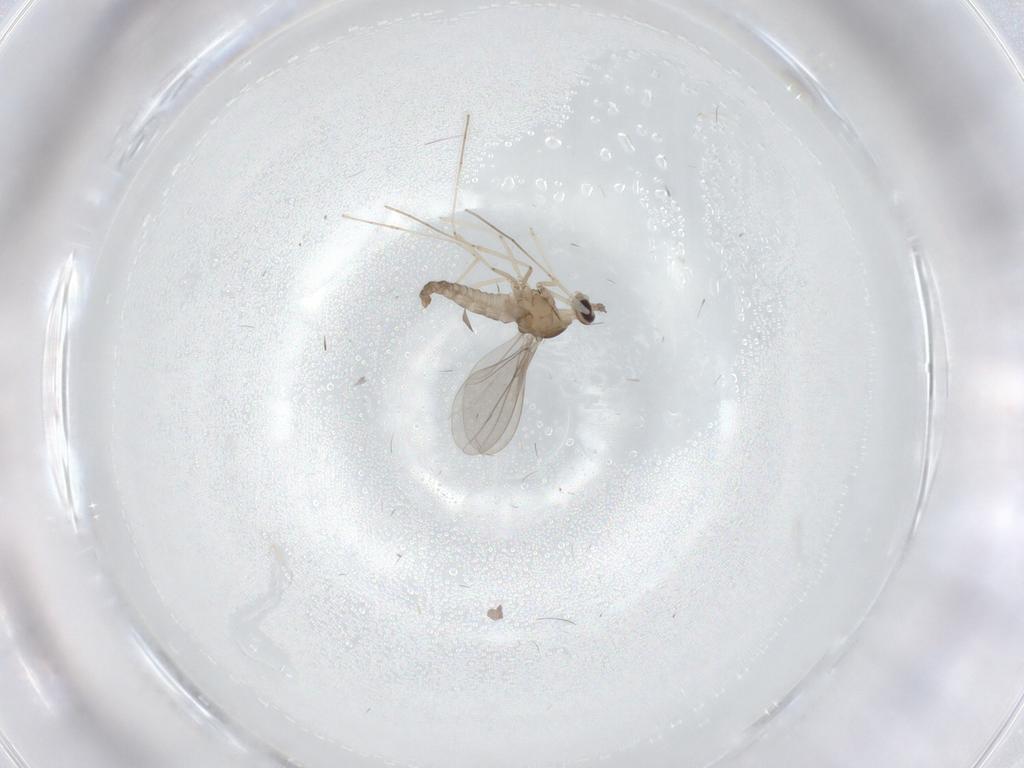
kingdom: Animalia
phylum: Arthropoda
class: Insecta
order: Diptera
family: Cecidomyiidae
